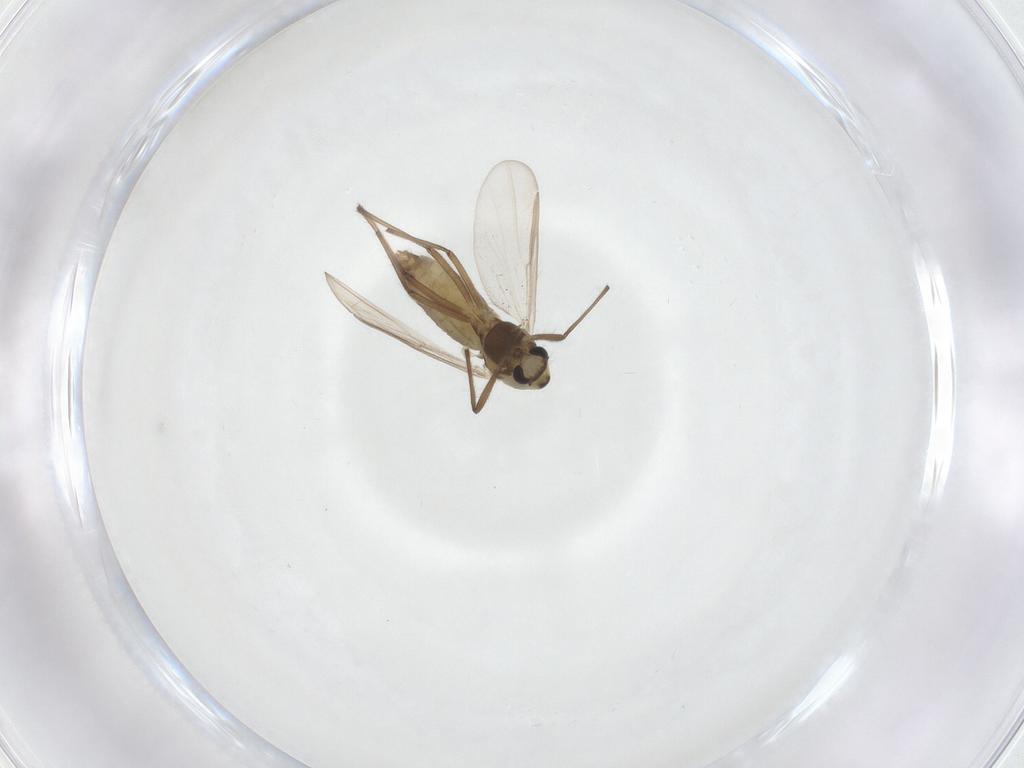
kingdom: Animalia
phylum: Arthropoda
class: Insecta
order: Diptera
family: Chironomidae
